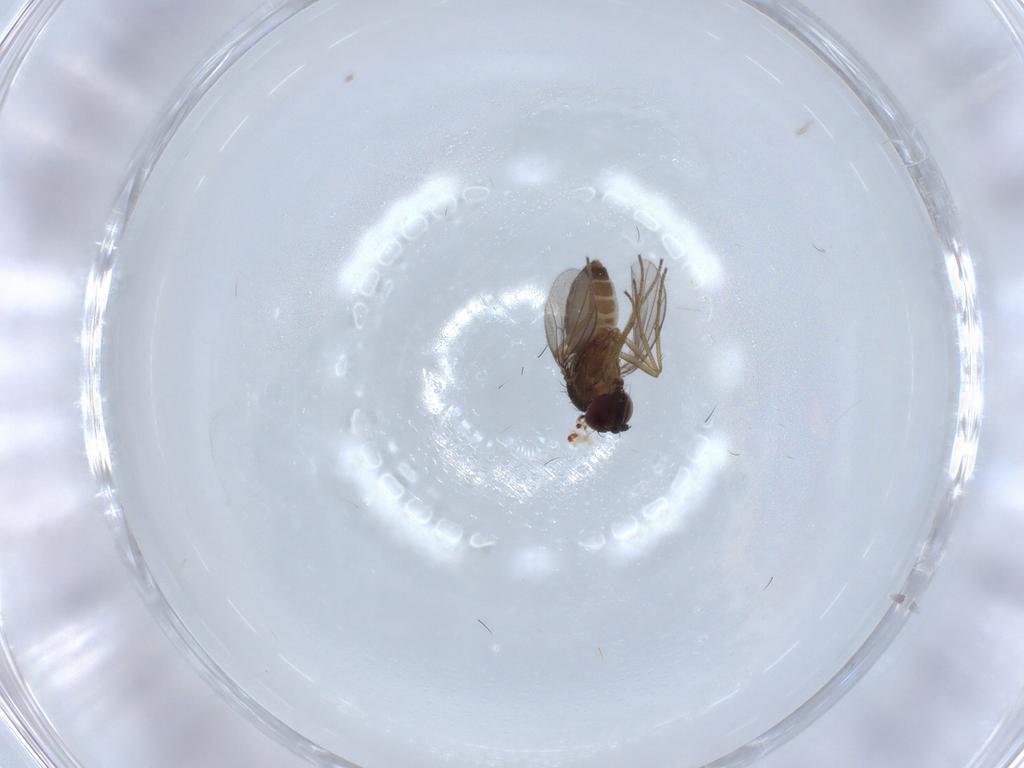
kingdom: Animalia
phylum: Arthropoda
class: Insecta
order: Diptera
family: Dolichopodidae
